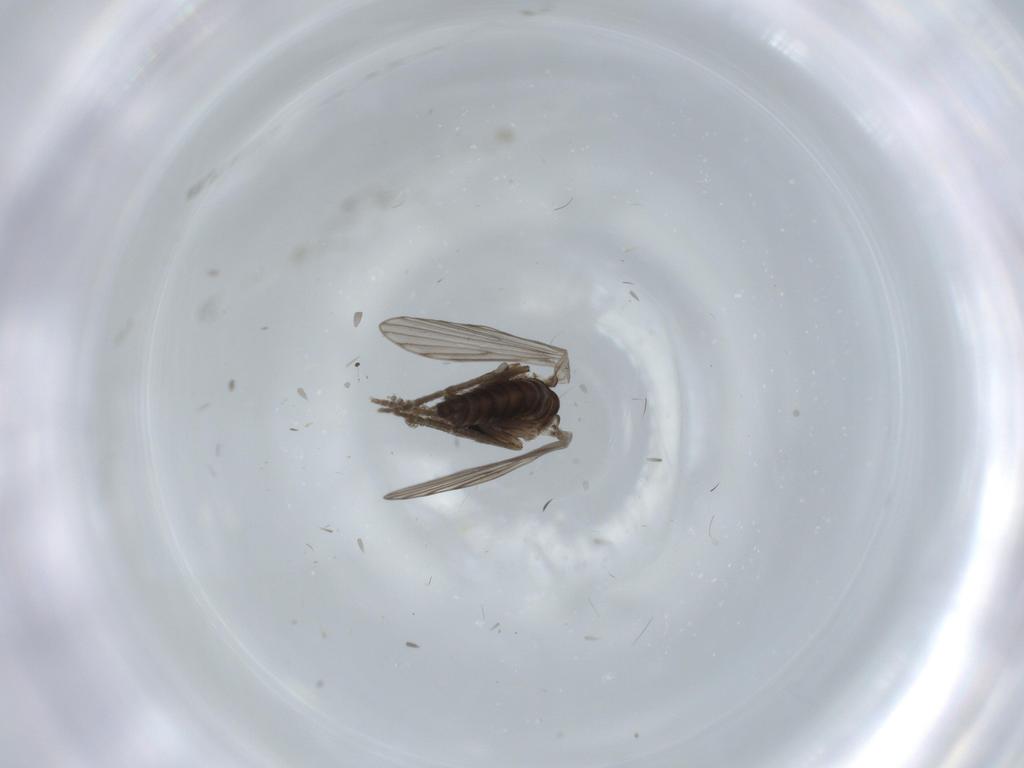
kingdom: Animalia
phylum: Arthropoda
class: Insecta
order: Diptera
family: Psychodidae
